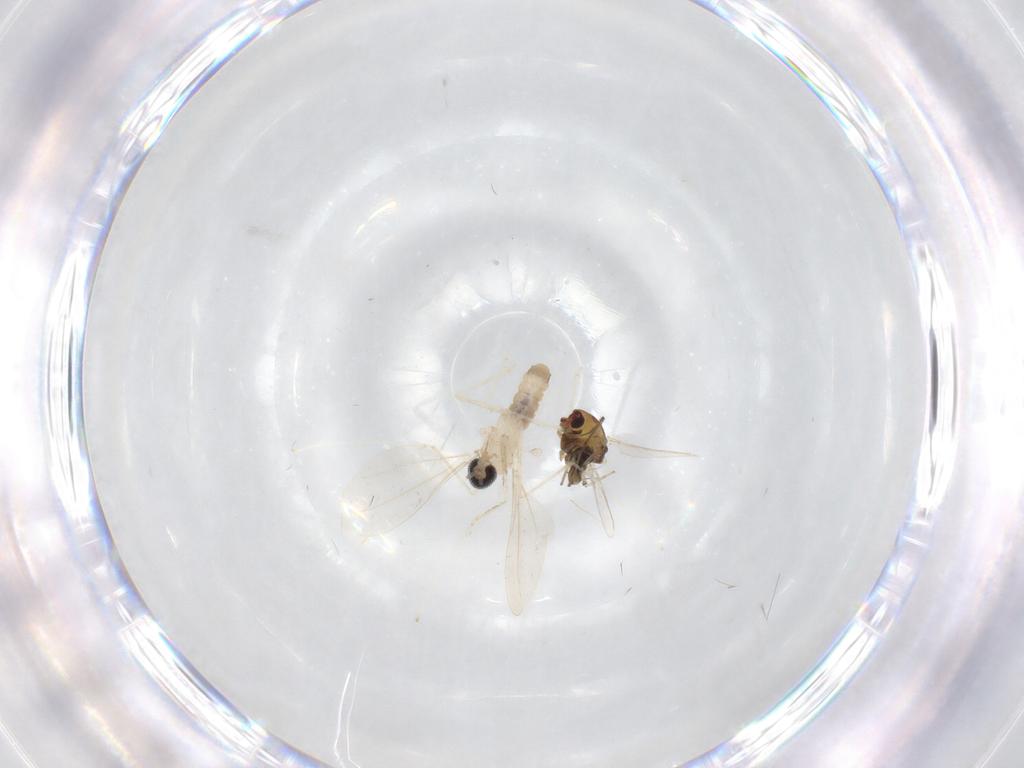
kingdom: Animalia
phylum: Arthropoda
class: Insecta
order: Diptera
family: Chironomidae
